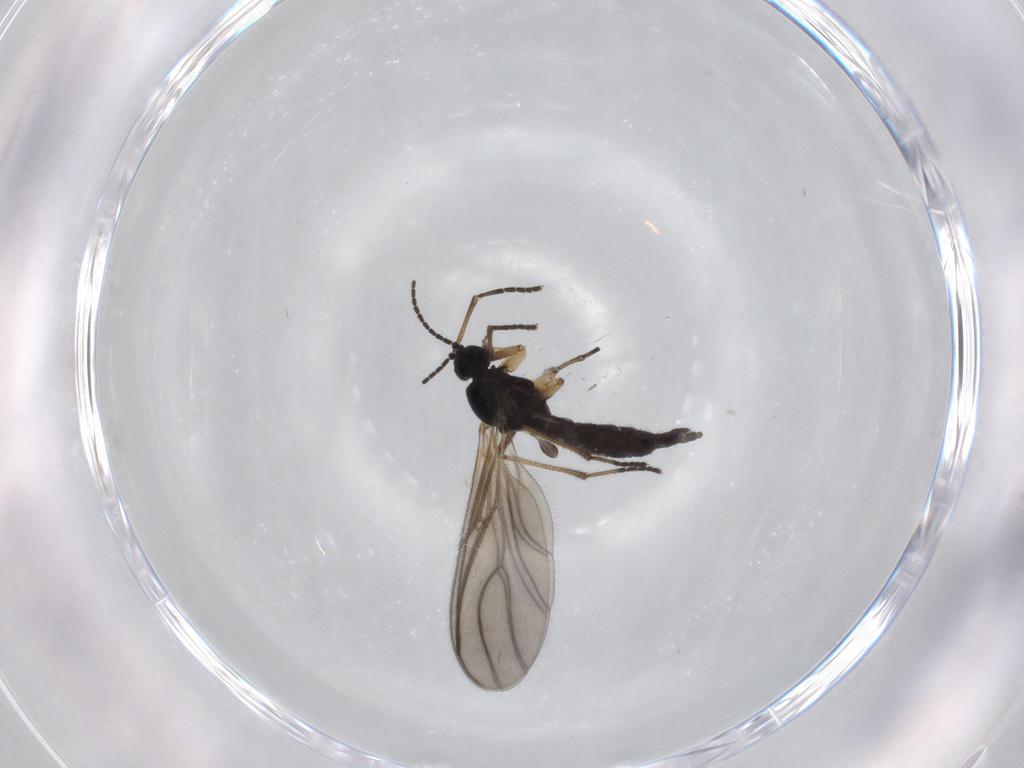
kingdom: Animalia
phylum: Arthropoda
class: Insecta
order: Diptera
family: Sciaridae
